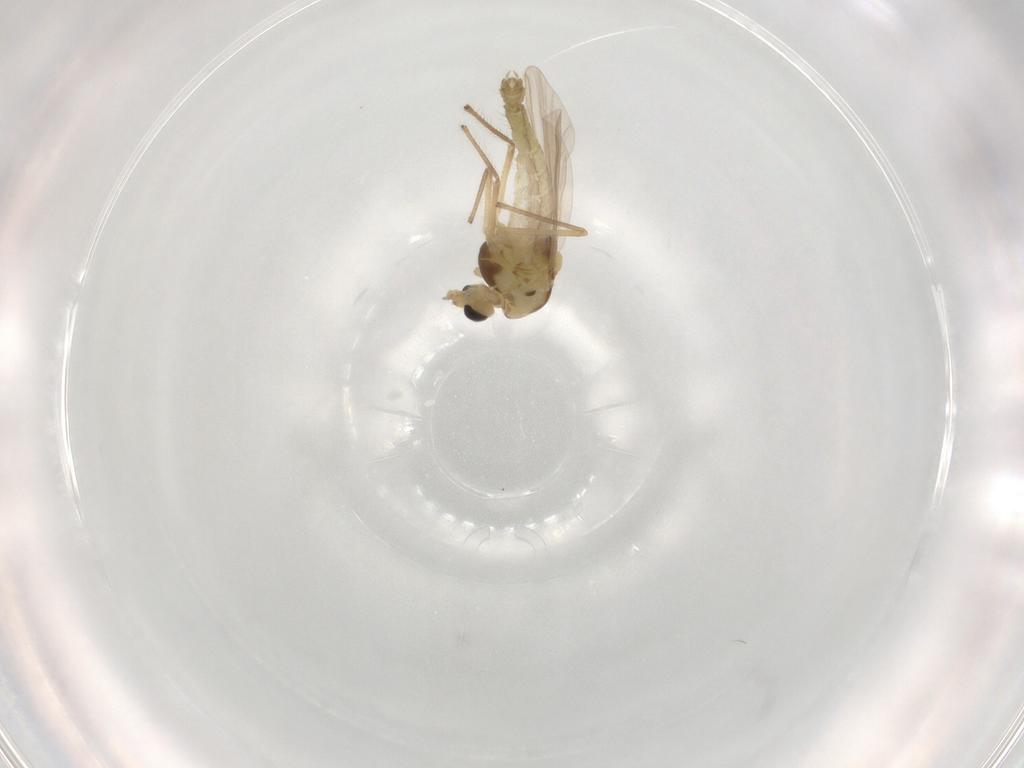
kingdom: Animalia
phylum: Arthropoda
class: Insecta
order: Diptera
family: Chironomidae
